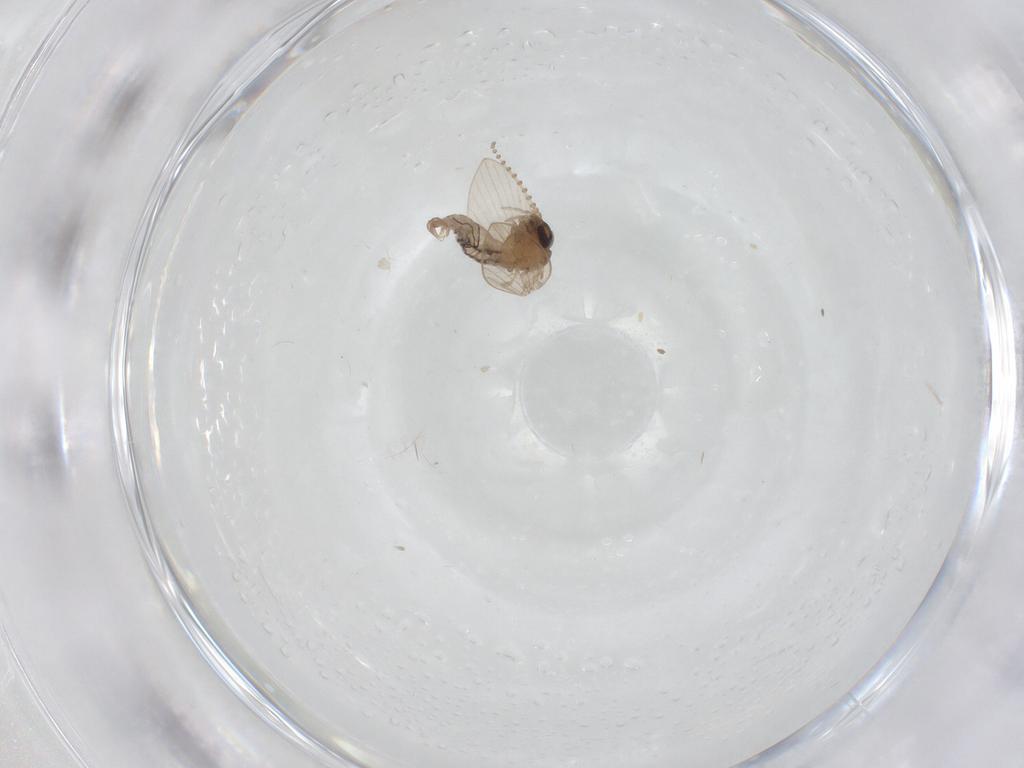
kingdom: Animalia
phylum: Arthropoda
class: Insecta
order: Diptera
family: Psychodidae
